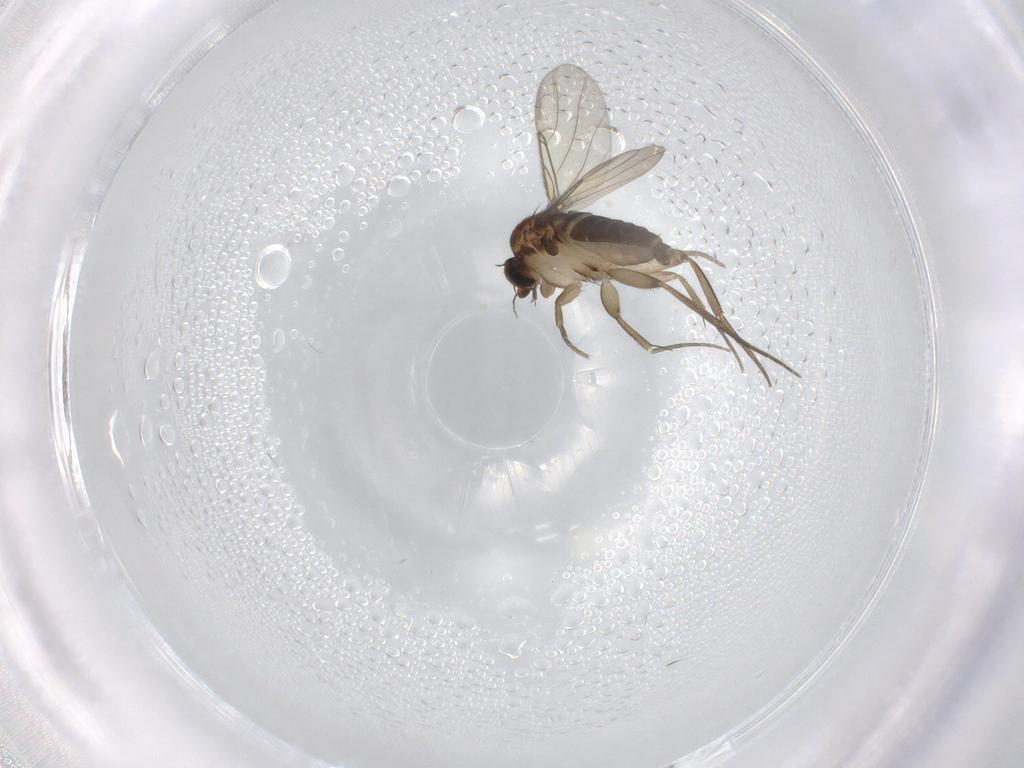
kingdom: Animalia
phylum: Arthropoda
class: Insecta
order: Diptera
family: Phoridae
